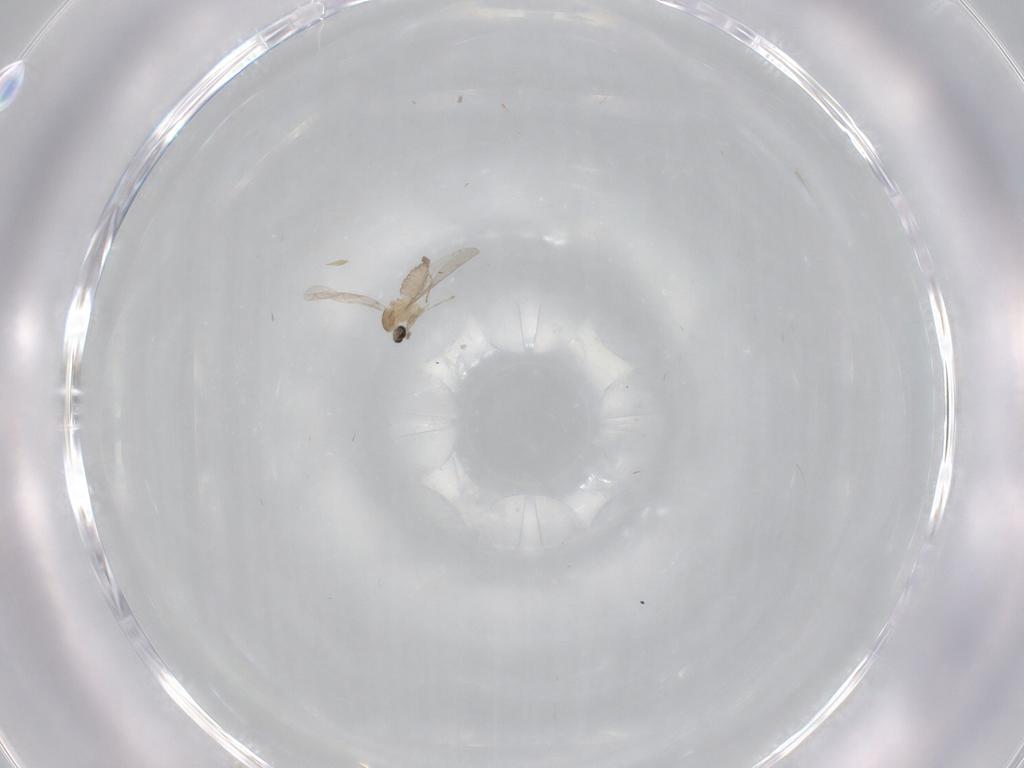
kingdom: Animalia
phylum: Arthropoda
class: Insecta
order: Diptera
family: Cecidomyiidae
